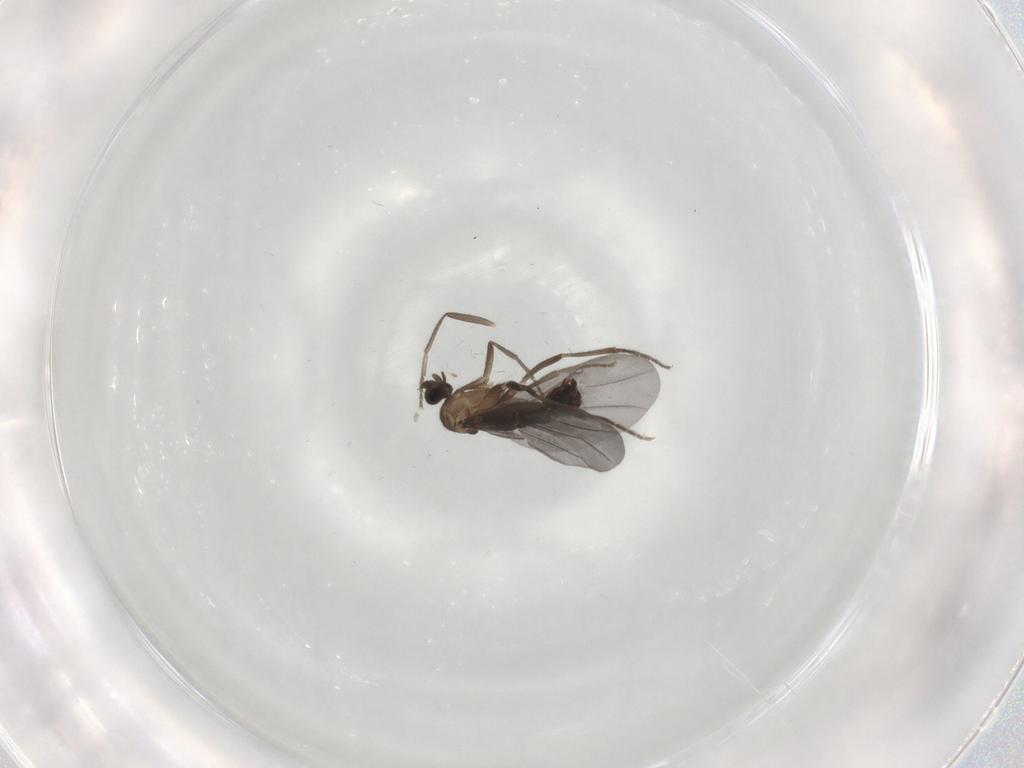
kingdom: Animalia
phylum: Arthropoda
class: Insecta
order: Diptera
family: Phoridae
